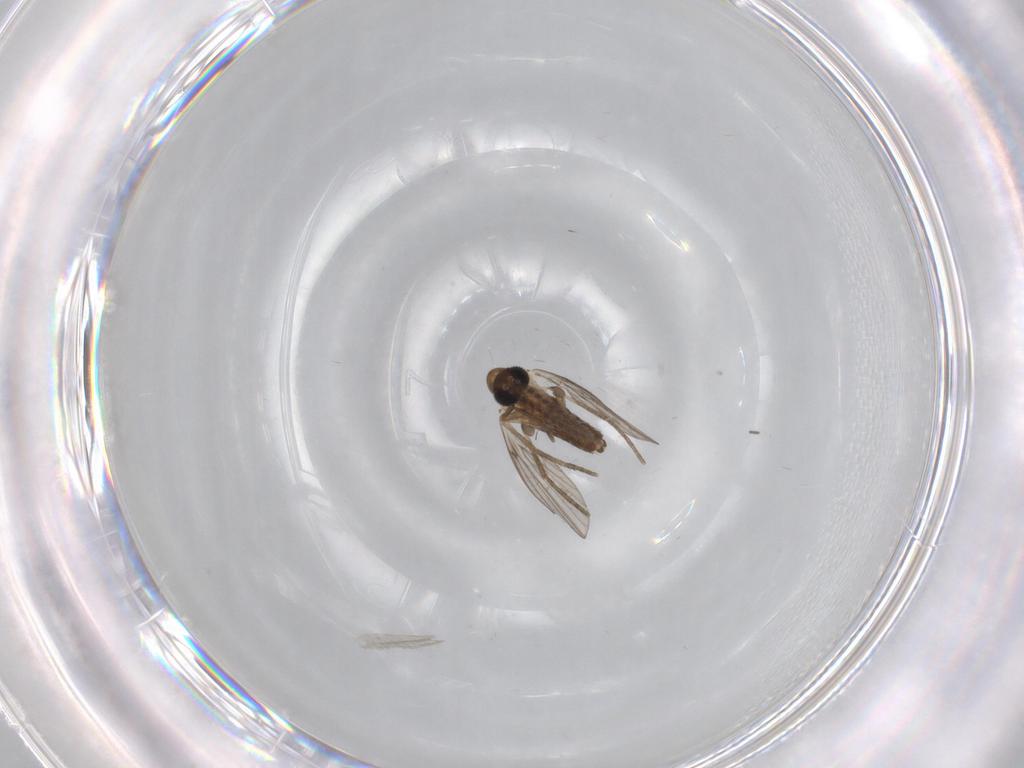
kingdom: Animalia
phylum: Arthropoda
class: Insecta
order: Diptera
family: Psychodidae
